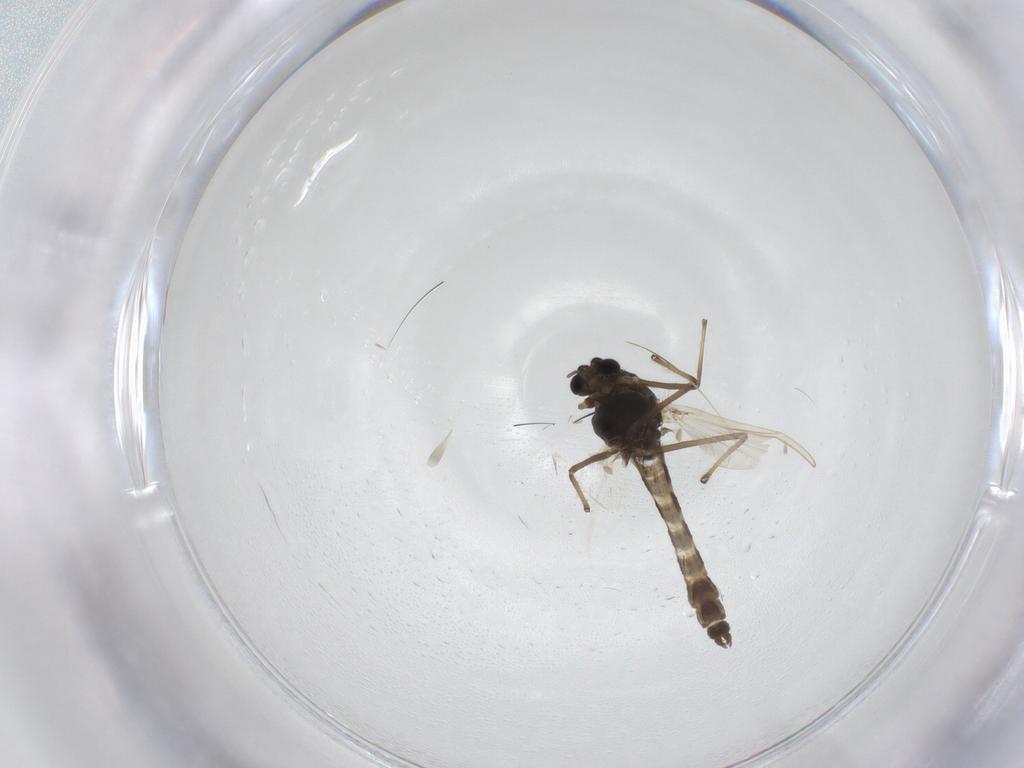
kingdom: Animalia
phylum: Arthropoda
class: Insecta
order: Diptera
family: Chironomidae
